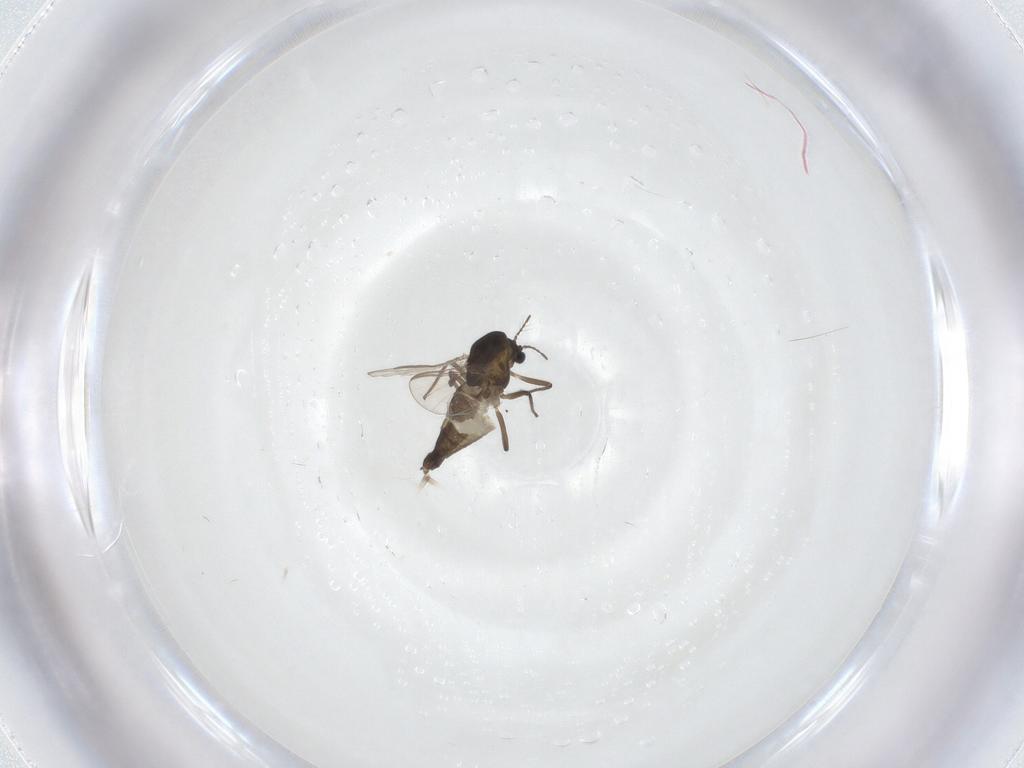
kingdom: Animalia
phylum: Arthropoda
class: Insecta
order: Diptera
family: Chironomidae
